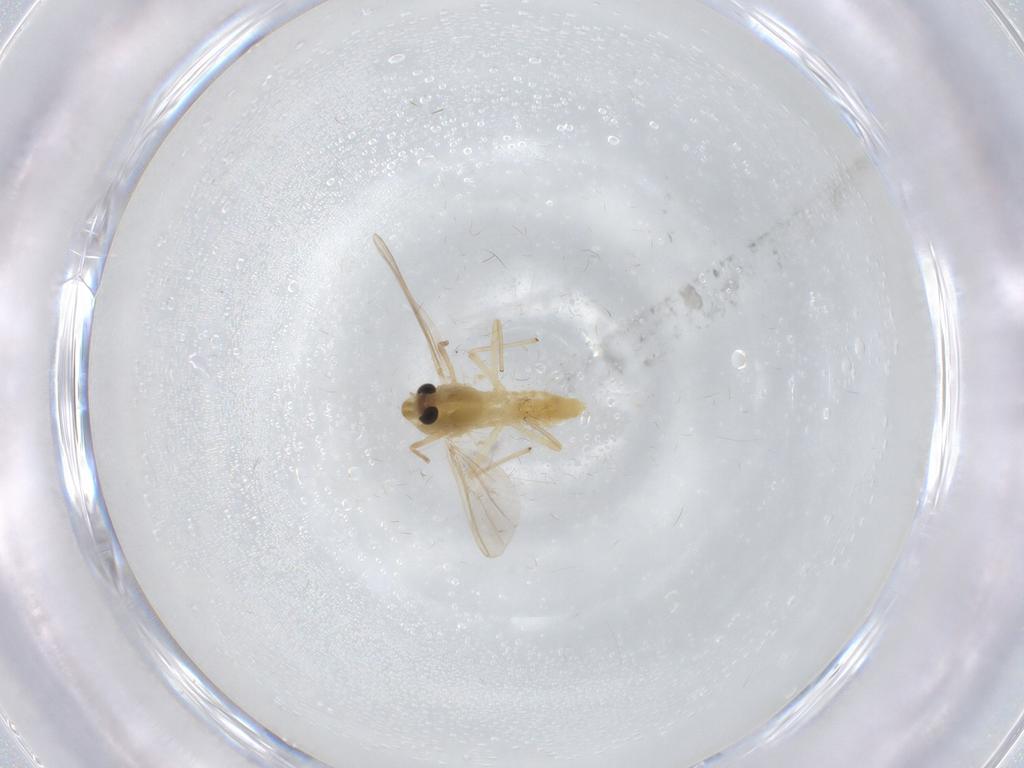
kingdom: Animalia
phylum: Arthropoda
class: Insecta
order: Diptera
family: Chironomidae
